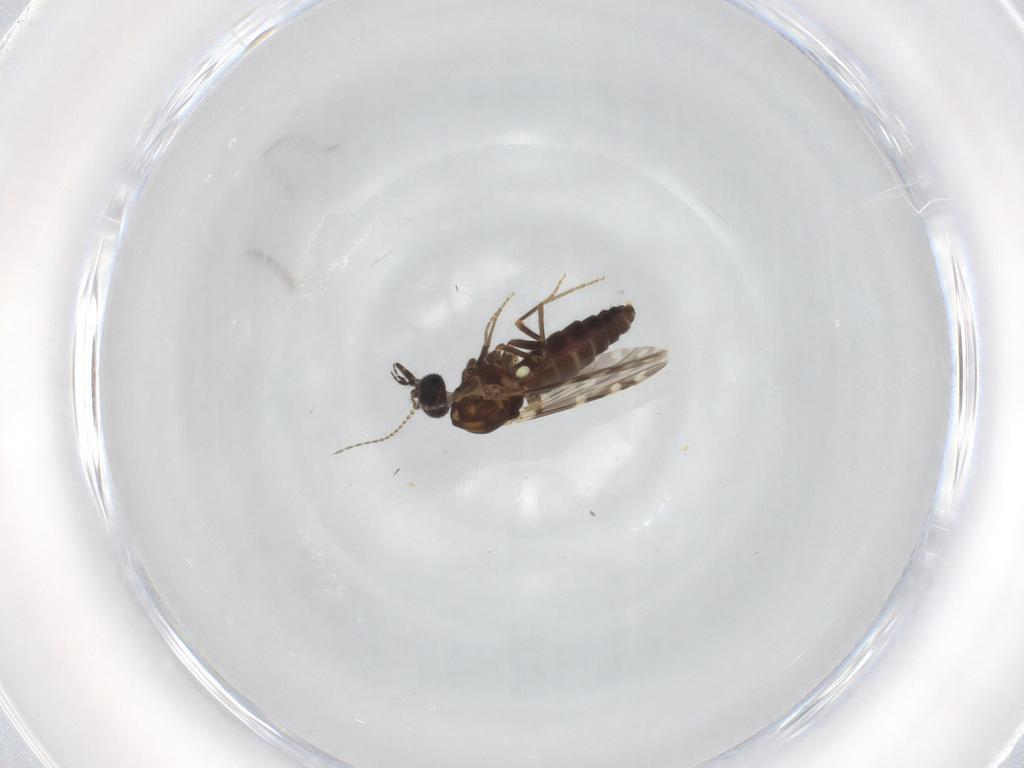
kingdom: Animalia
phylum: Arthropoda
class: Insecta
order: Diptera
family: Ceratopogonidae
